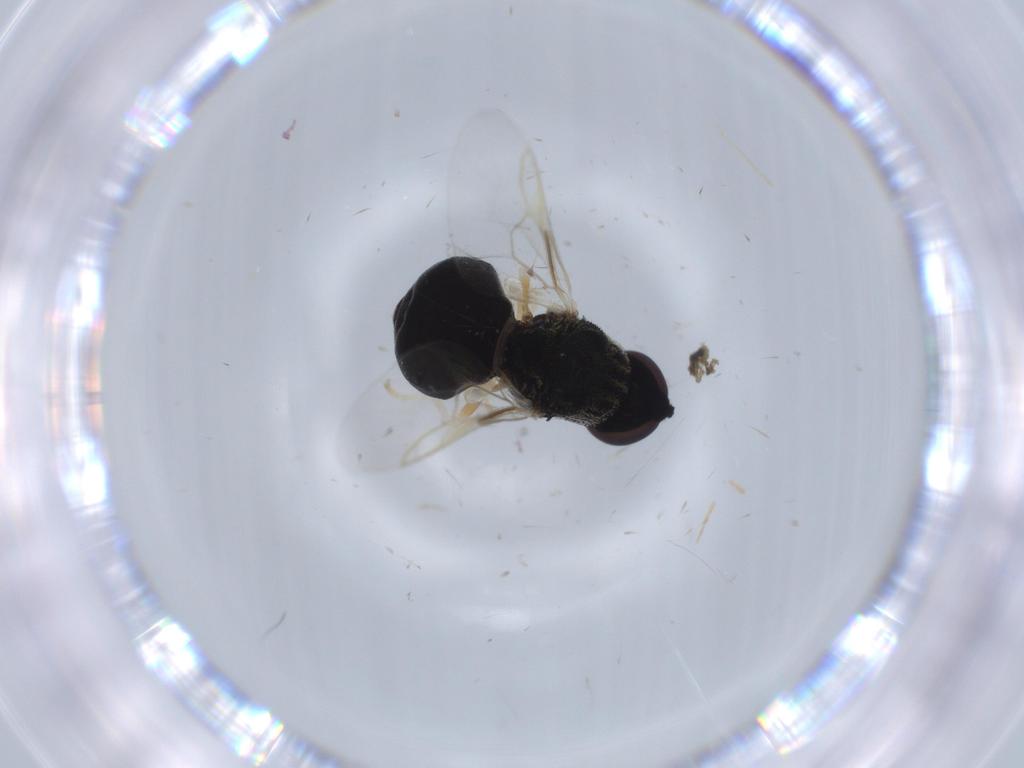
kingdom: Animalia
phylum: Arthropoda
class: Insecta
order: Diptera
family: Stratiomyidae
